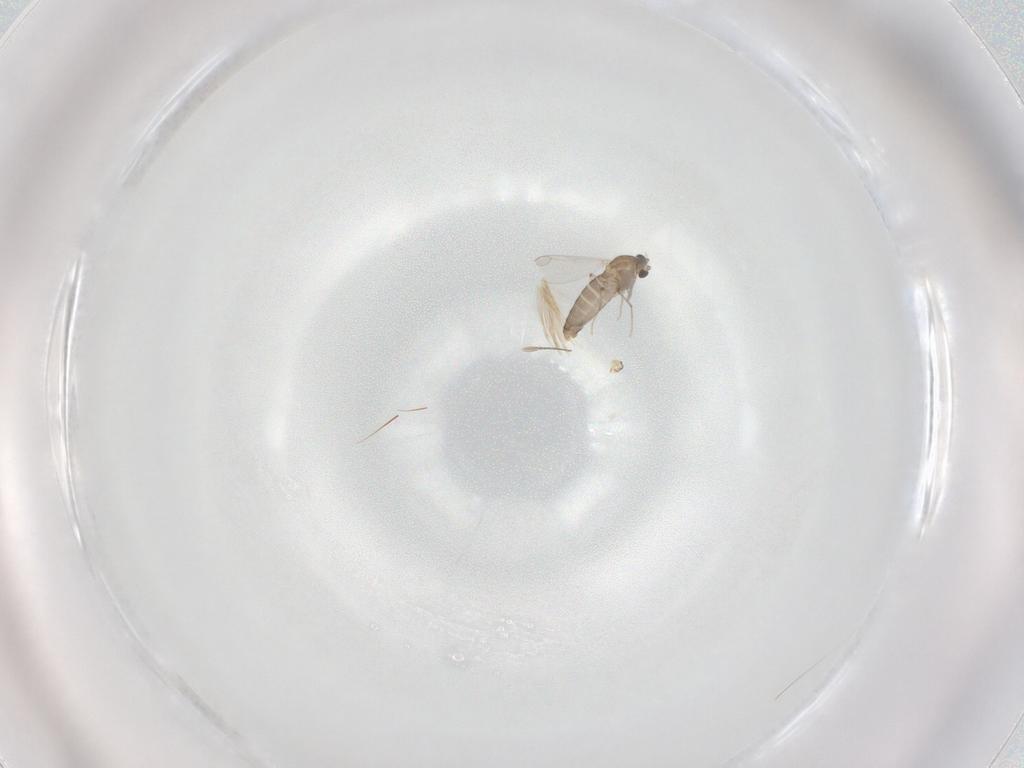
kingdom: Animalia
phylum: Arthropoda
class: Insecta
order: Diptera
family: Chironomidae
